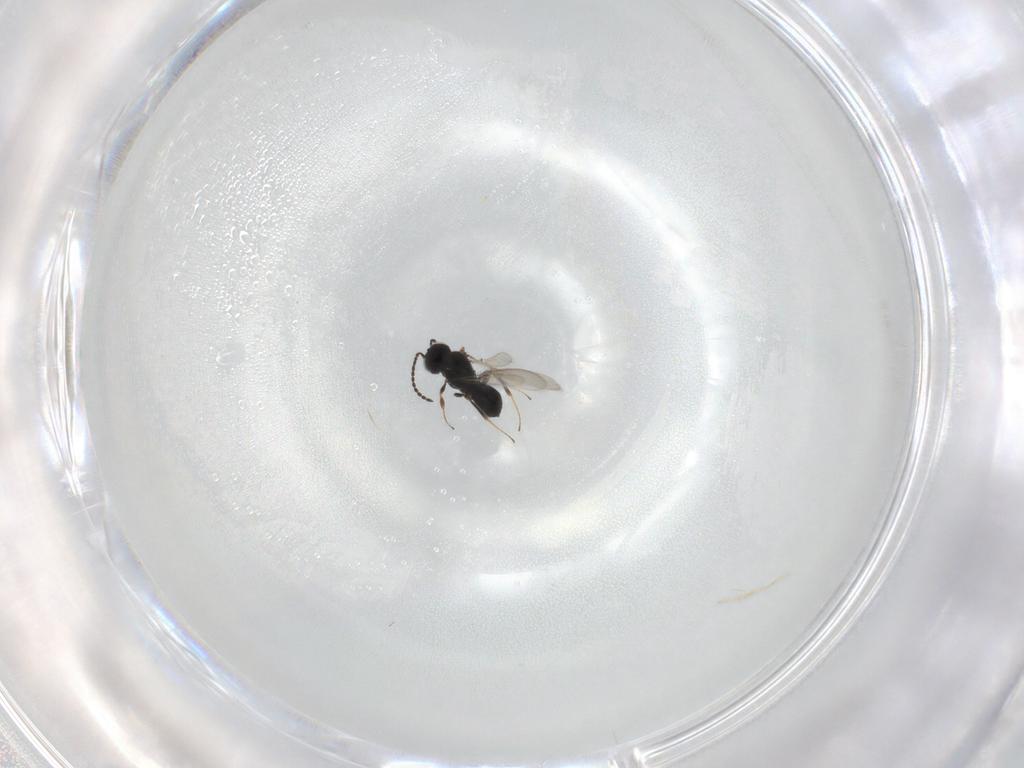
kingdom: Animalia
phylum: Arthropoda
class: Insecta
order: Hymenoptera
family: Scelionidae
